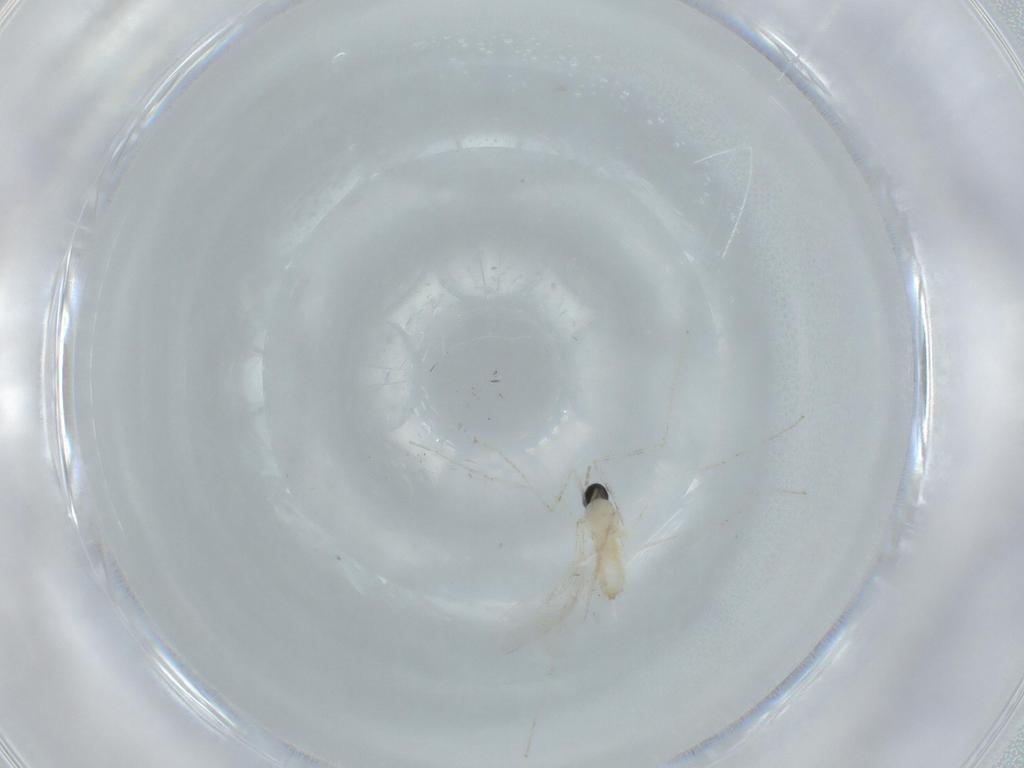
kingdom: Animalia
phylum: Arthropoda
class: Insecta
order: Diptera
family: Cecidomyiidae
